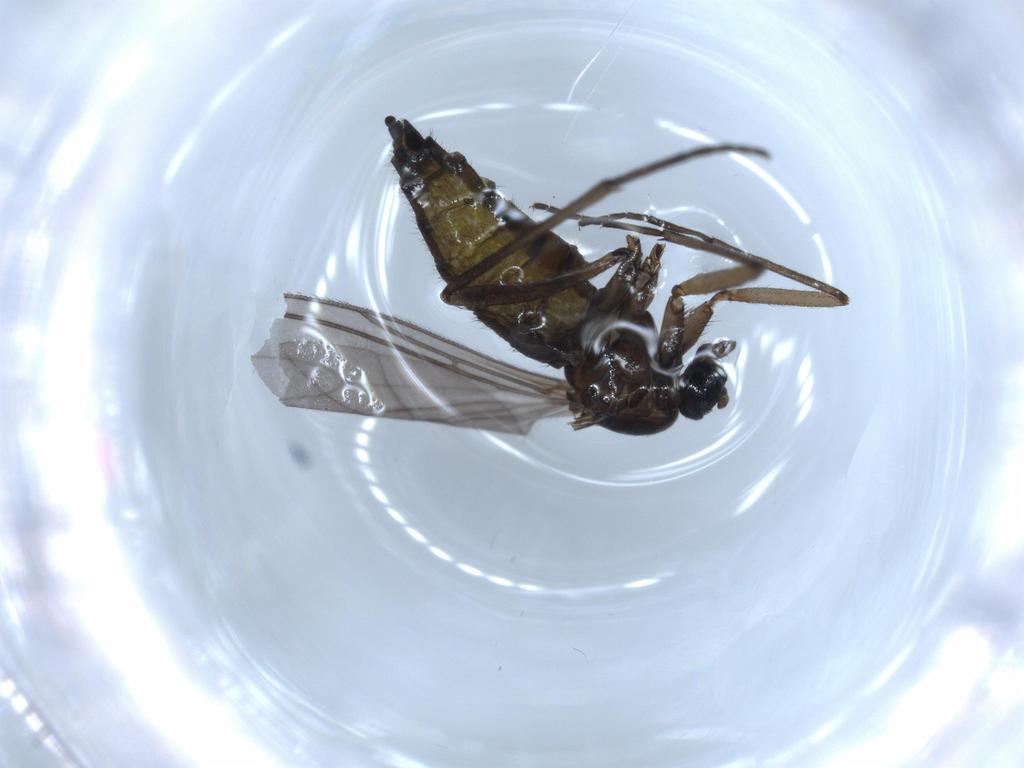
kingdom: Animalia
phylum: Arthropoda
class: Insecta
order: Diptera
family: Sciaridae
